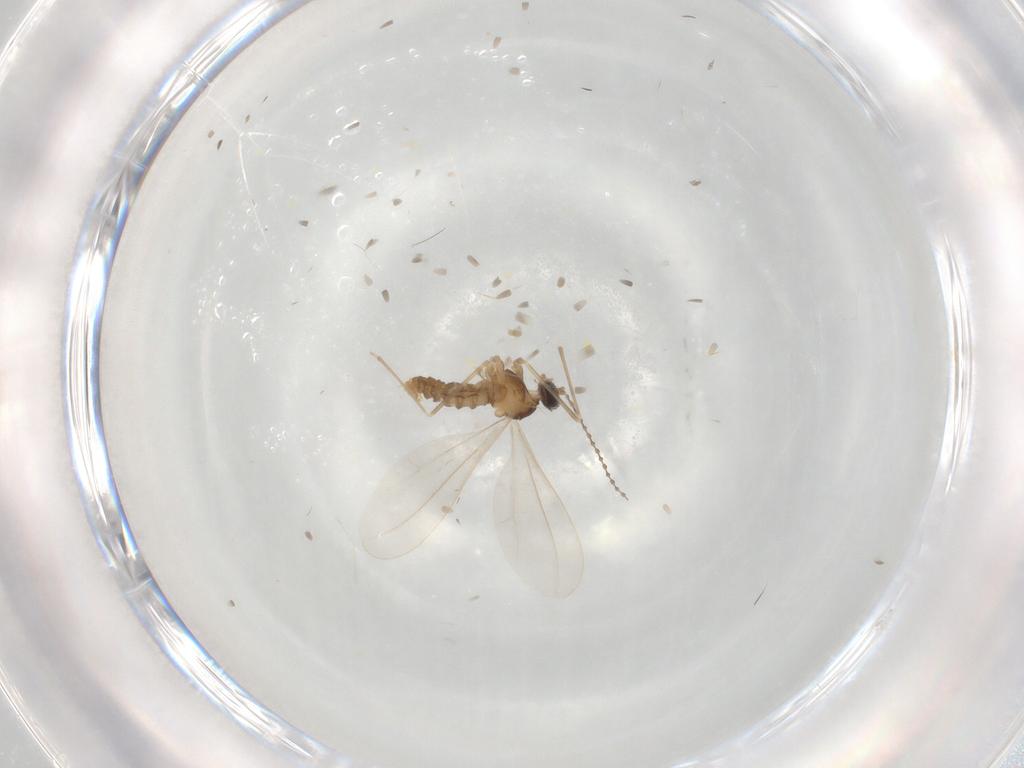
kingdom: Animalia
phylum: Arthropoda
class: Insecta
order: Diptera
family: Cecidomyiidae
